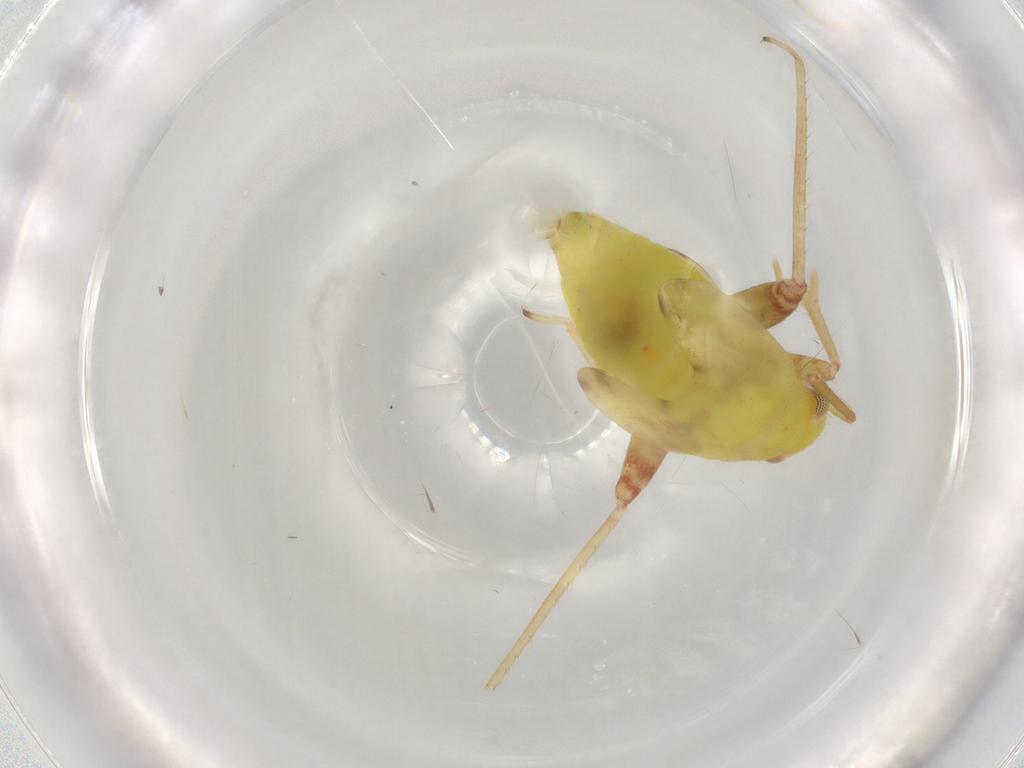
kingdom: Animalia
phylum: Arthropoda
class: Insecta
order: Hemiptera
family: Miridae
